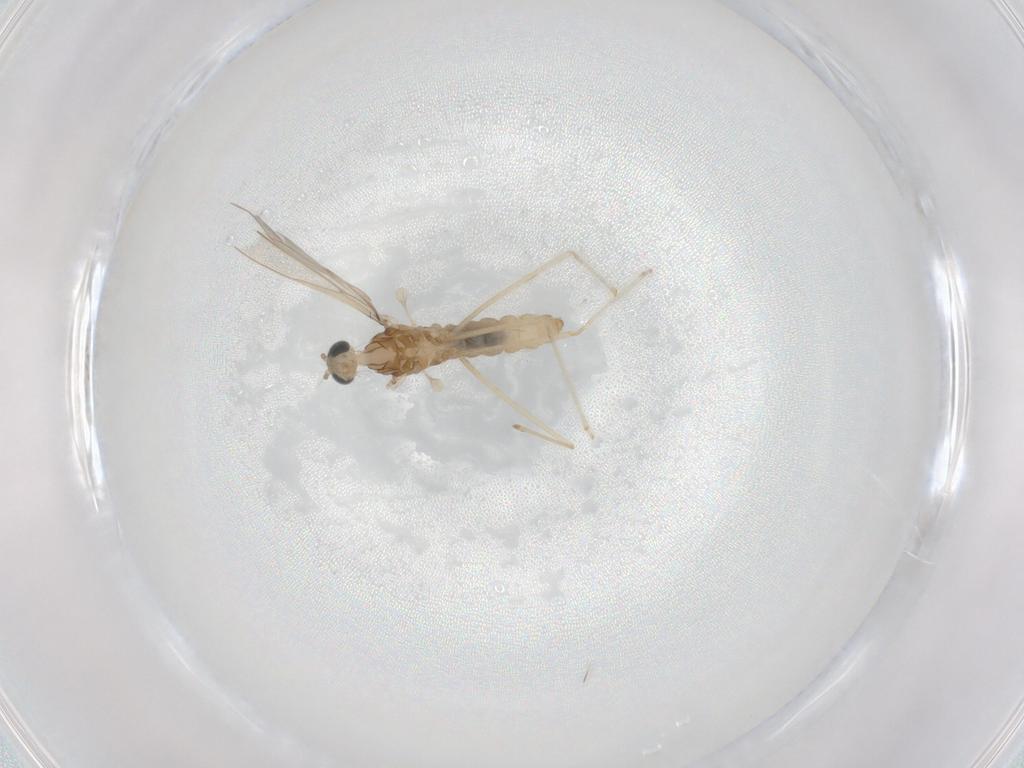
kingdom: Animalia
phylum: Arthropoda
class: Insecta
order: Diptera
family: Cecidomyiidae
